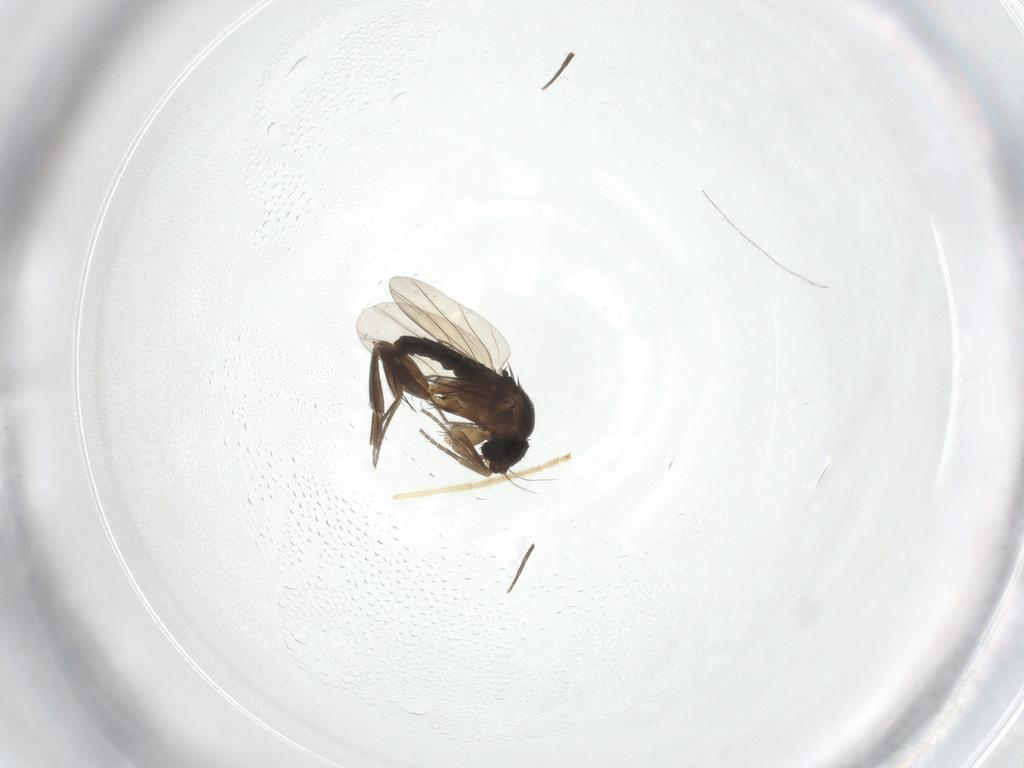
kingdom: Animalia
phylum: Arthropoda
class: Insecta
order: Diptera
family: Chironomidae
